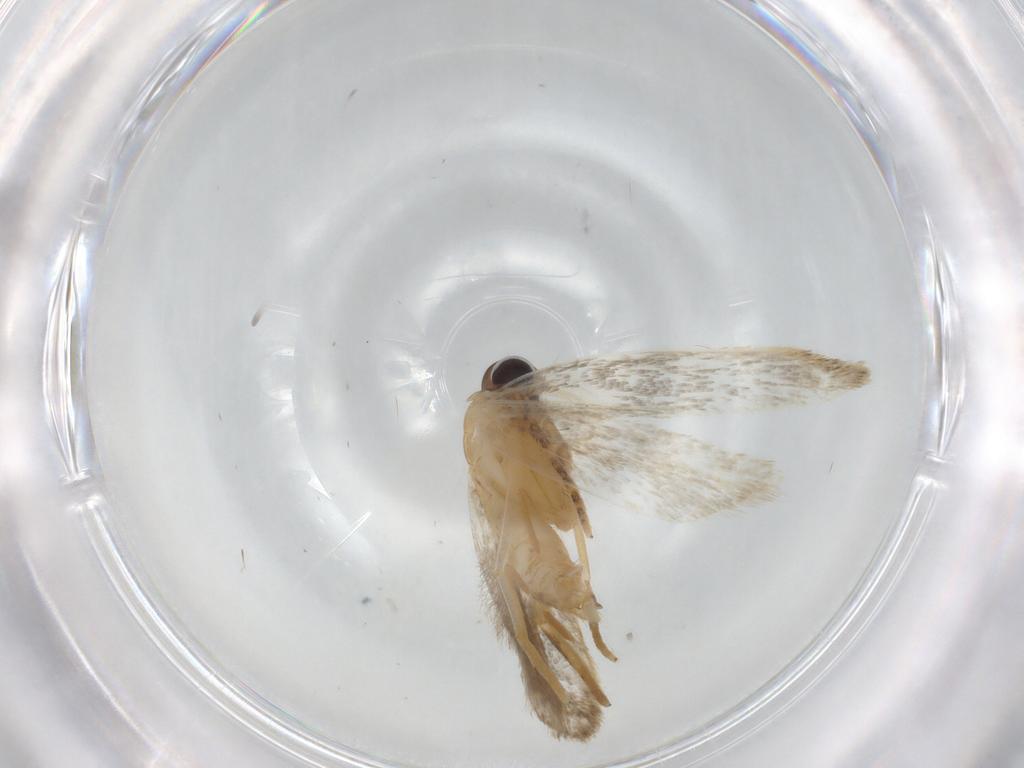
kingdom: Animalia
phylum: Arthropoda
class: Insecta
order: Lepidoptera
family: Autostichidae
